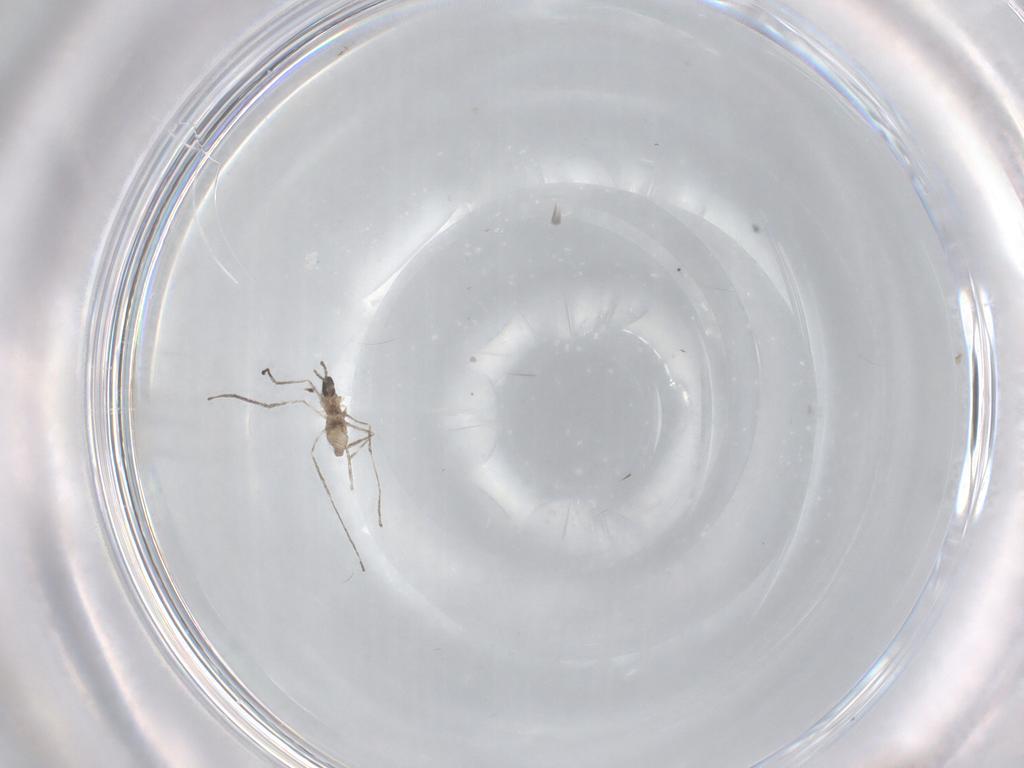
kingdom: Animalia
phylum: Arthropoda
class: Insecta
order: Diptera
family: Cecidomyiidae
